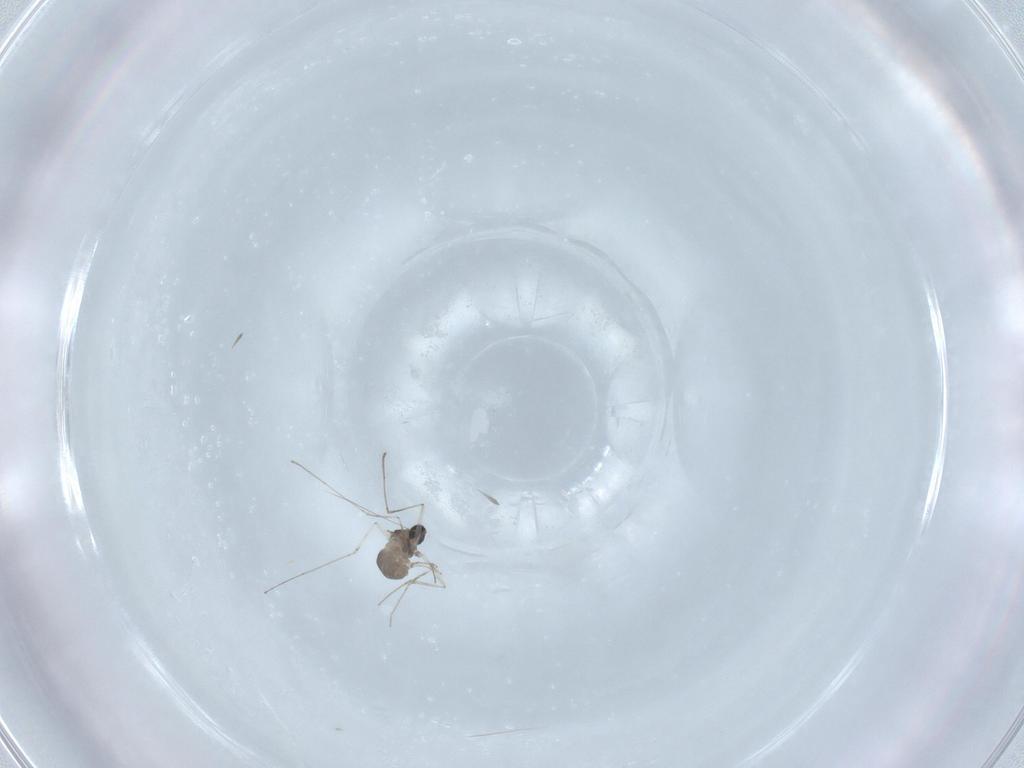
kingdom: Animalia
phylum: Arthropoda
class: Insecta
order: Diptera
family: Cecidomyiidae
